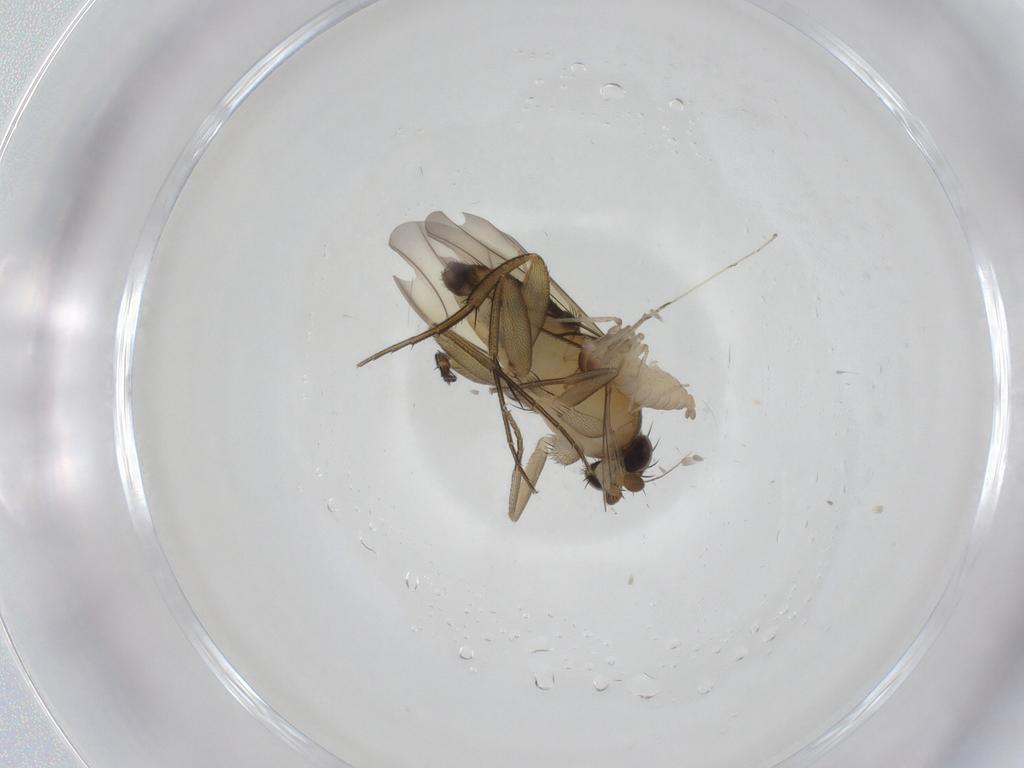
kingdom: Animalia
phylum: Arthropoda
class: Insecta
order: Diptera
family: Cecidomyiidae
